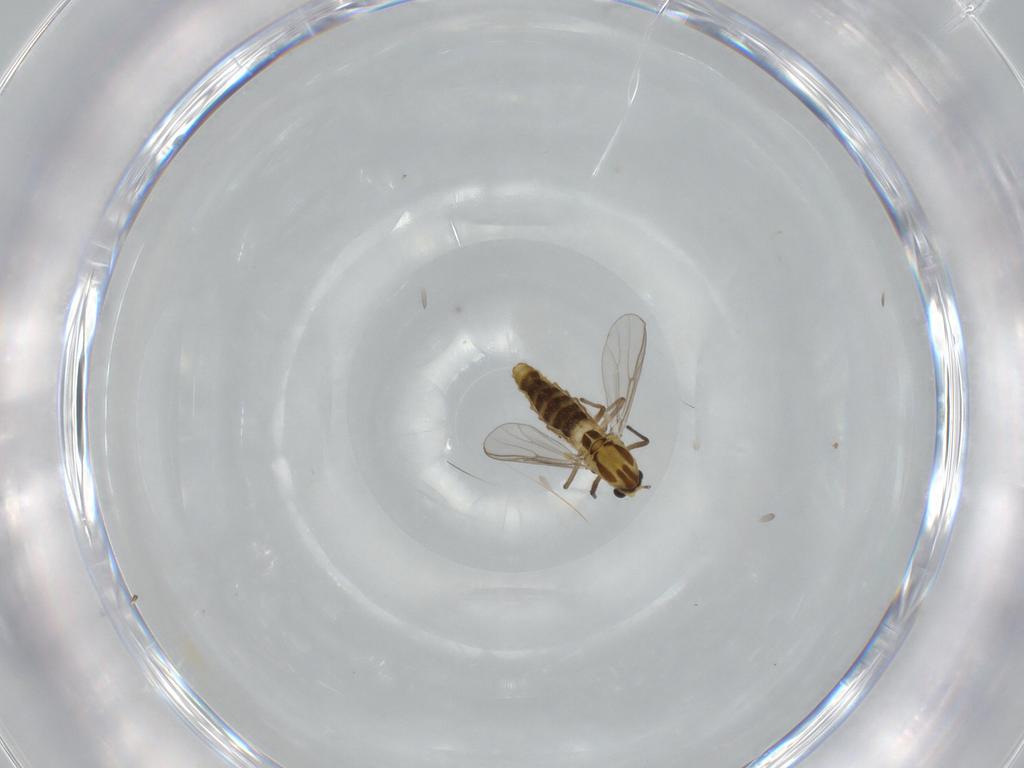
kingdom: Animalia
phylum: Arthropoda
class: Insecta
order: Diptera
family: Chironomidae
